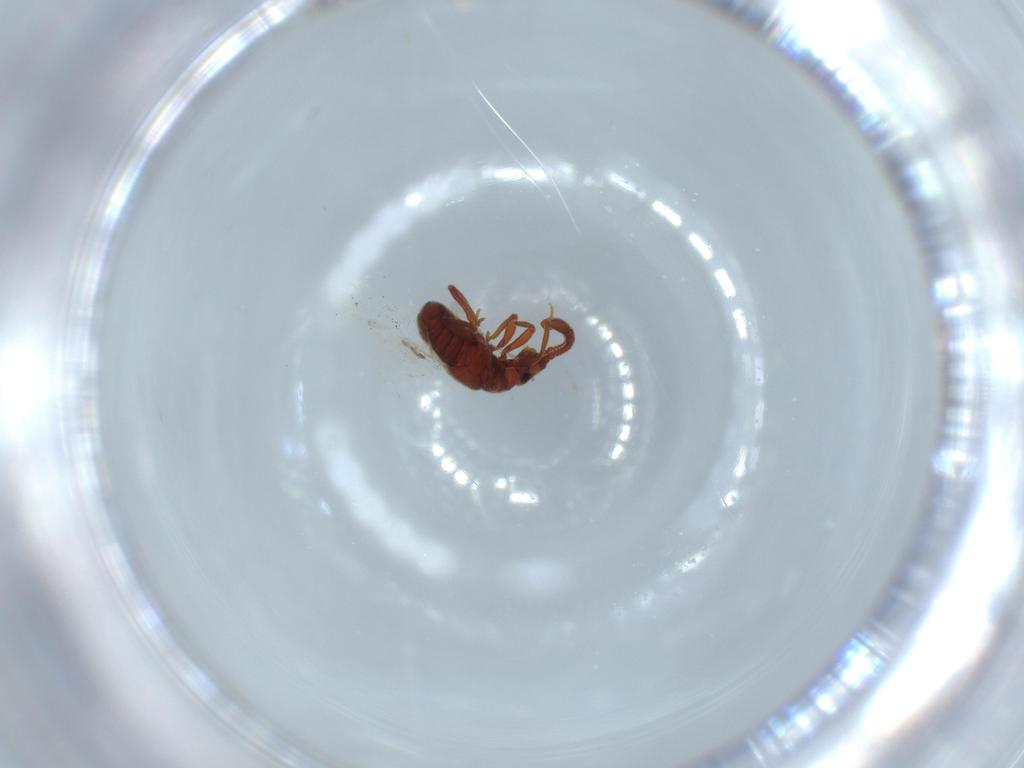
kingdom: Animalia
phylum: Arthropoda
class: Insecta
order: Coleoptera
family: Staphylinidae
